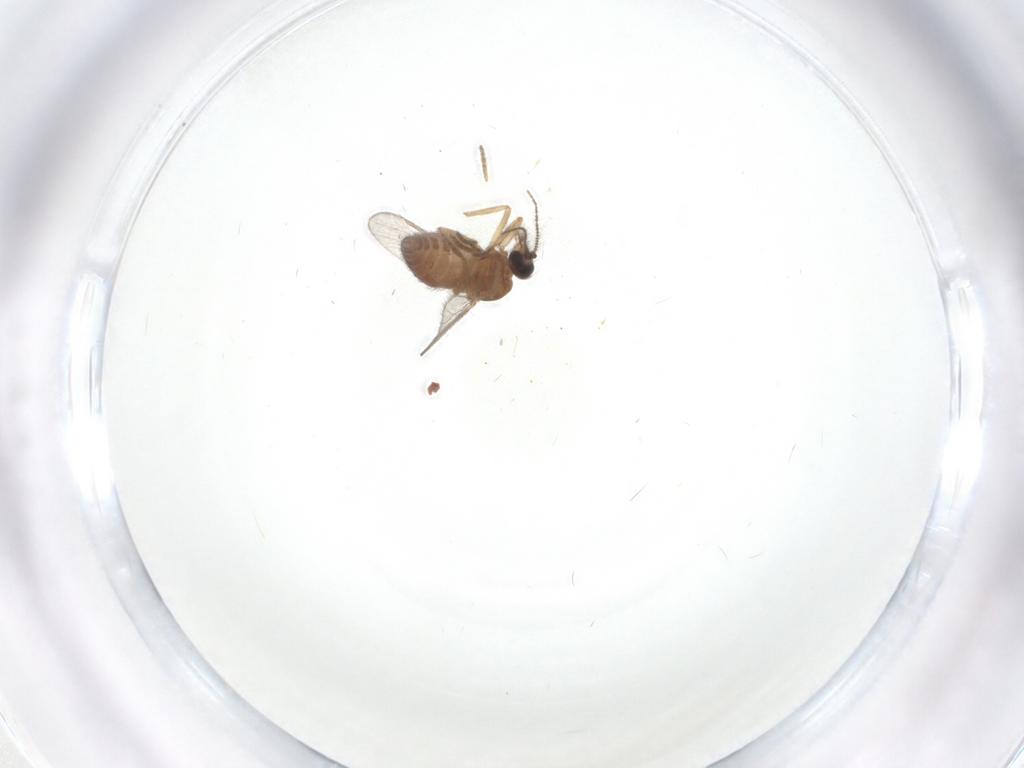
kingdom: Animalia
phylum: Arthropoda
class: Insecta
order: Diptera
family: Ceratopogonidae
